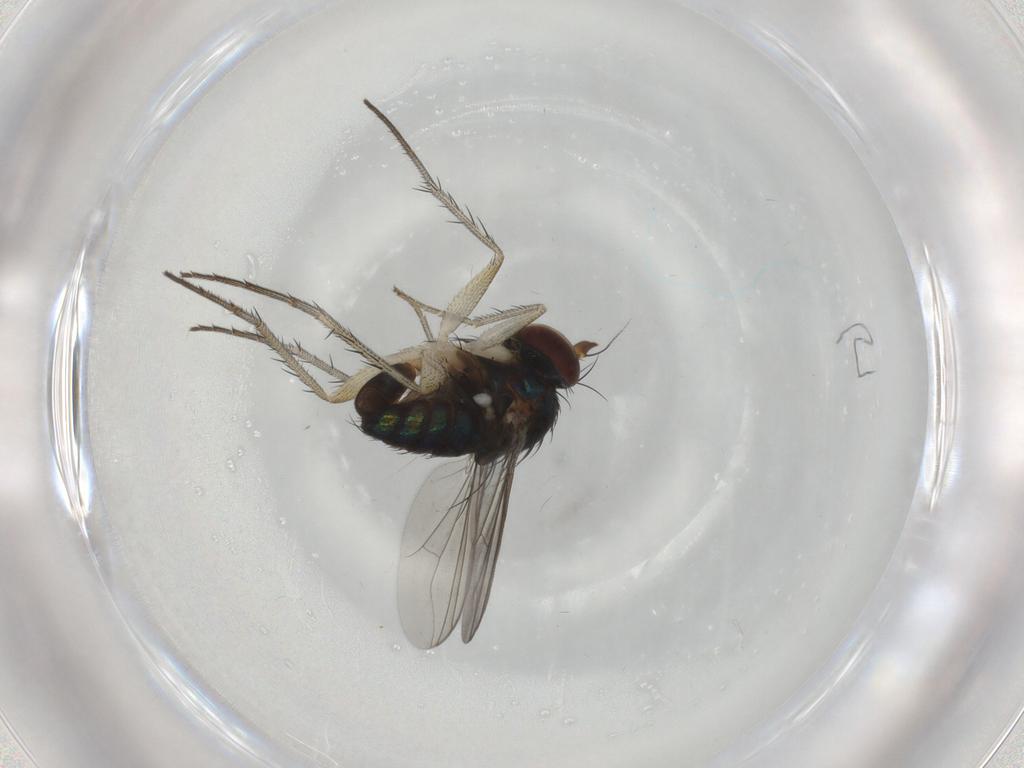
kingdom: Animalia
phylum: Arthropoda
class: Insecta
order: Diptera
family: Dolichopodidae
